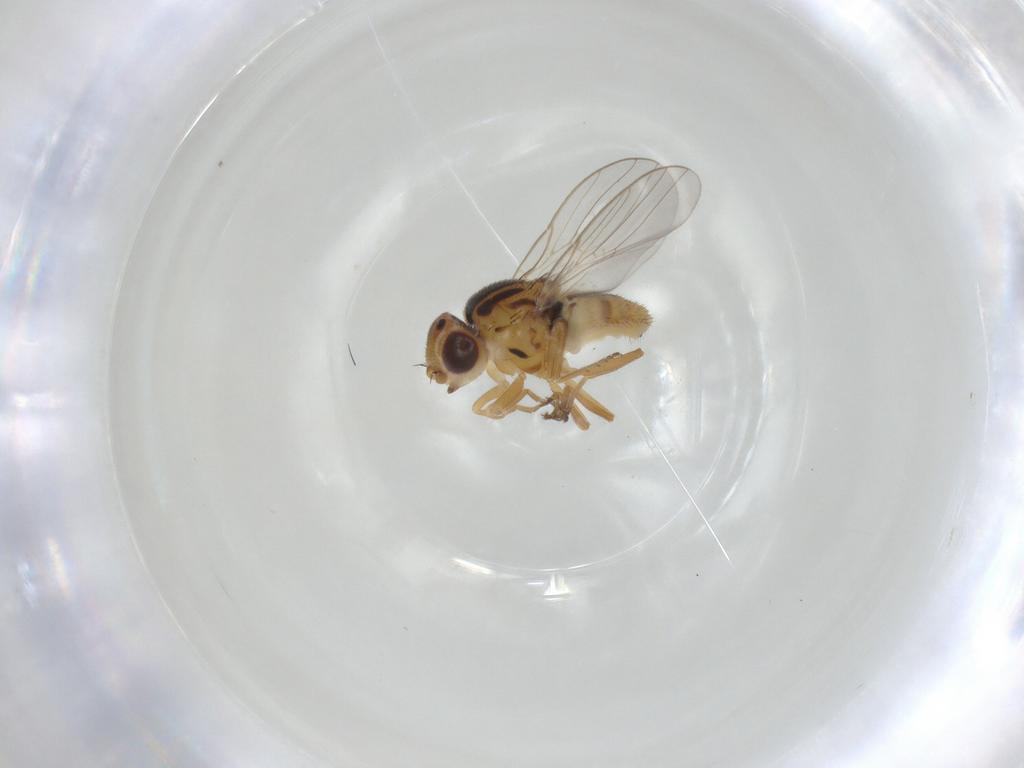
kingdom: Animalia
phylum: Arthropoda
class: Insecta
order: Diptera
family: Chloropidae
